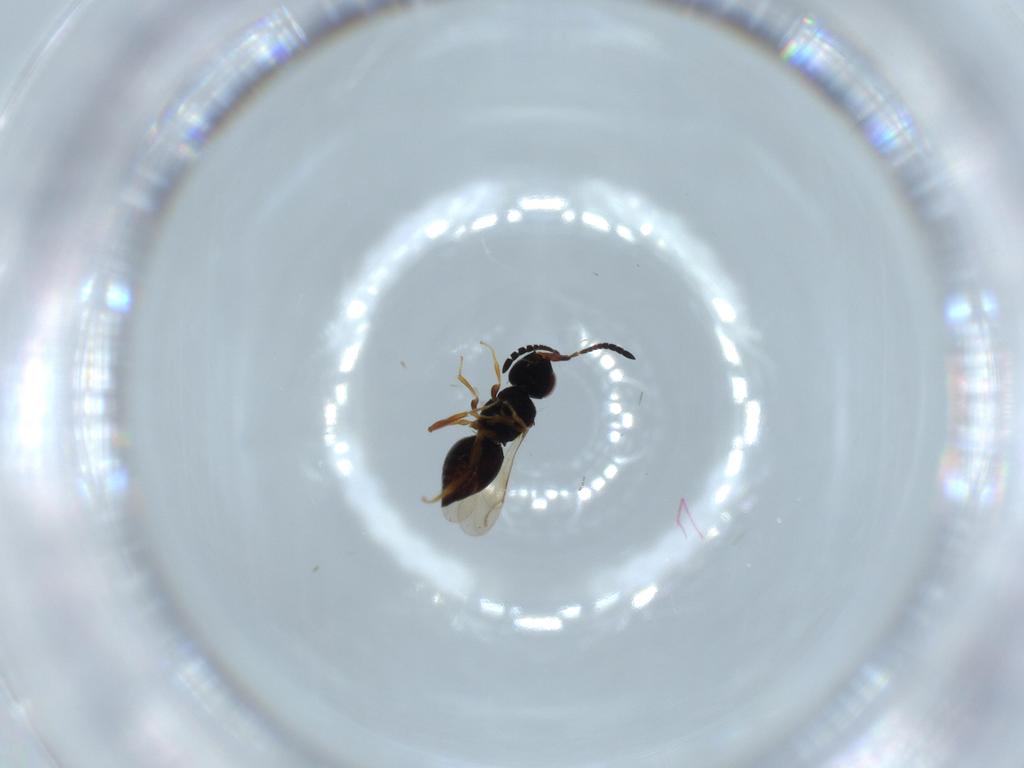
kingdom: Animalia
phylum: Arthropoda
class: Insecta
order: Hymenoptera
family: Ceraphronidae
